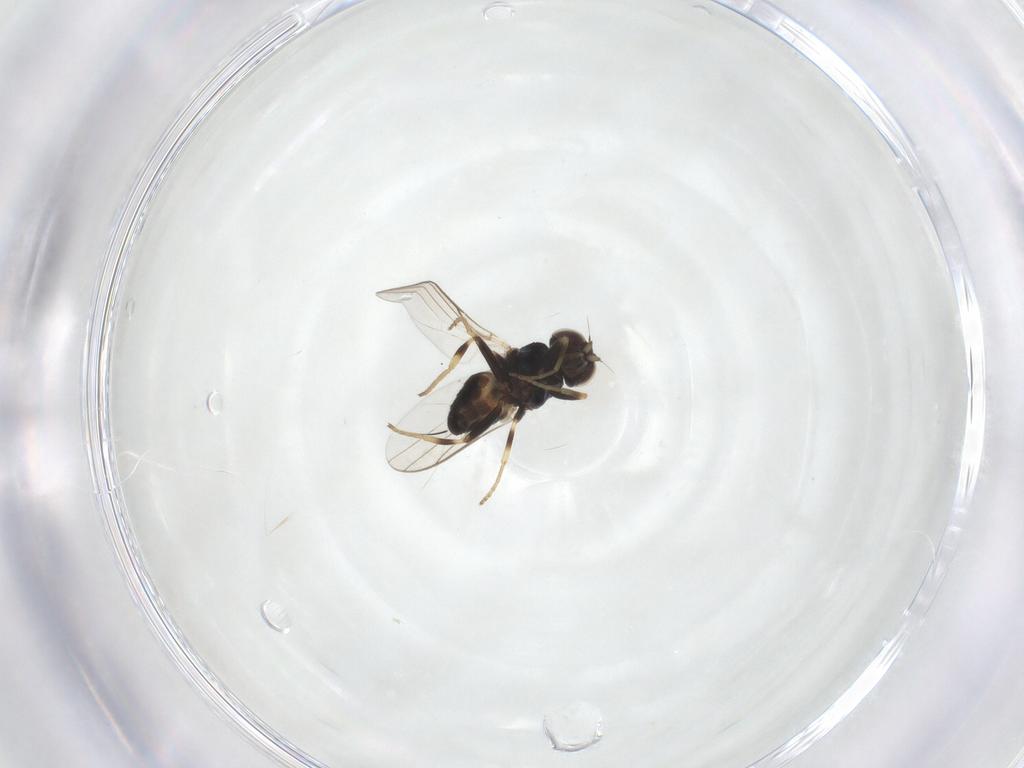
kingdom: Animalia
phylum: Arthropoda
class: Insecta
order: Diptera
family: Chloropidae
